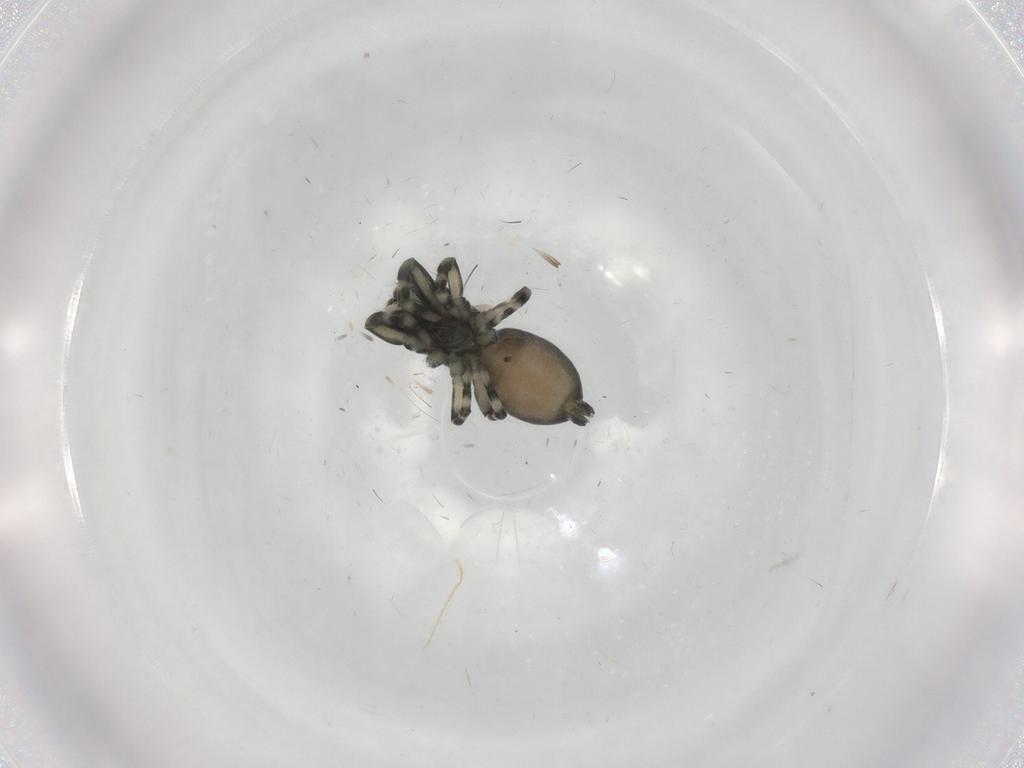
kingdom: Animalia
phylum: Arthropoda
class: Arachnida
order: Araneae
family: Salticidae
